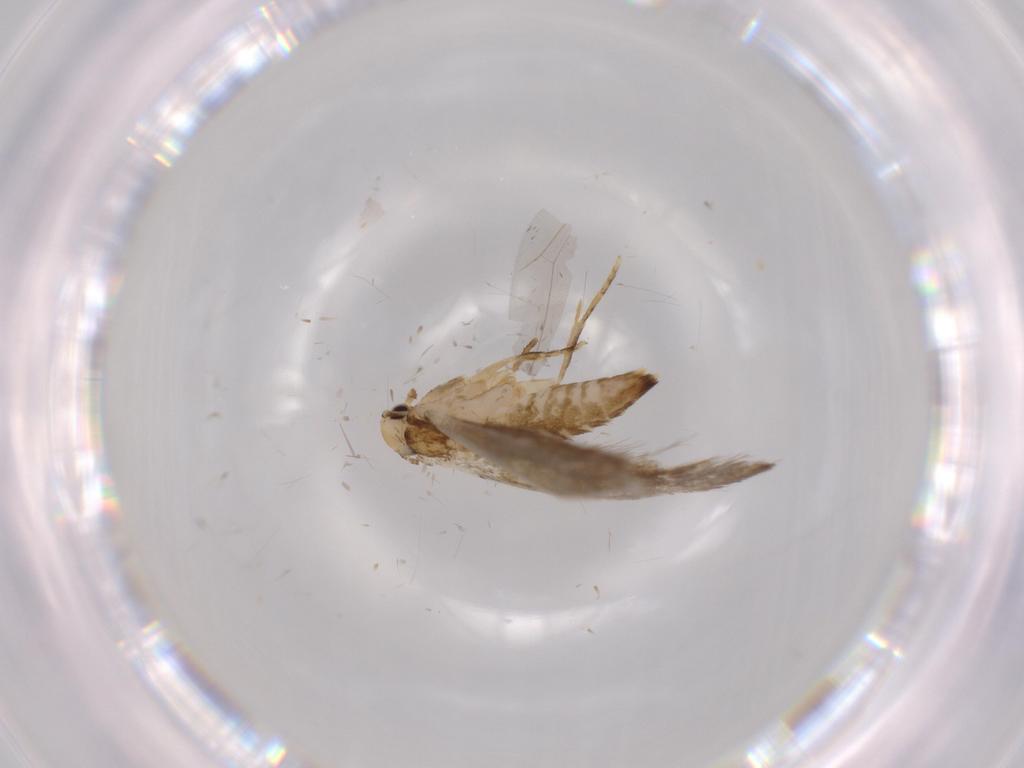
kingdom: Animalia
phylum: Arthropoda
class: Insecta
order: Lepidoptera
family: Tineidae
